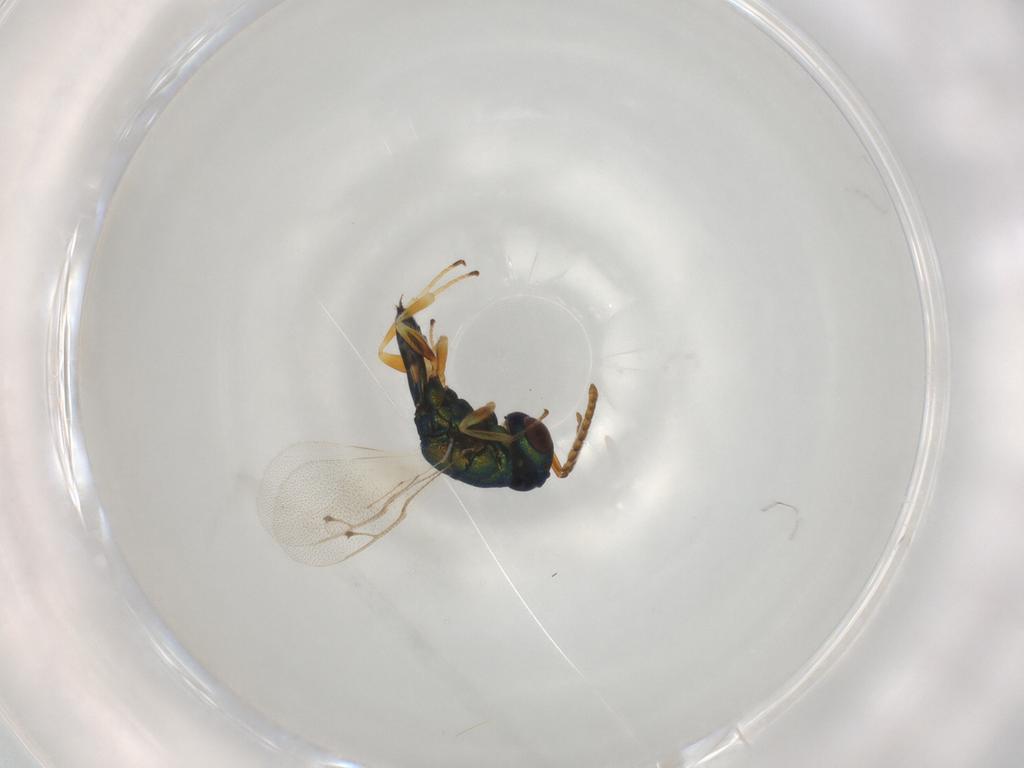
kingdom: Animalia
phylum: Arthropoda
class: Insecta
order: Hymenoptera
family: Pteromalidae
